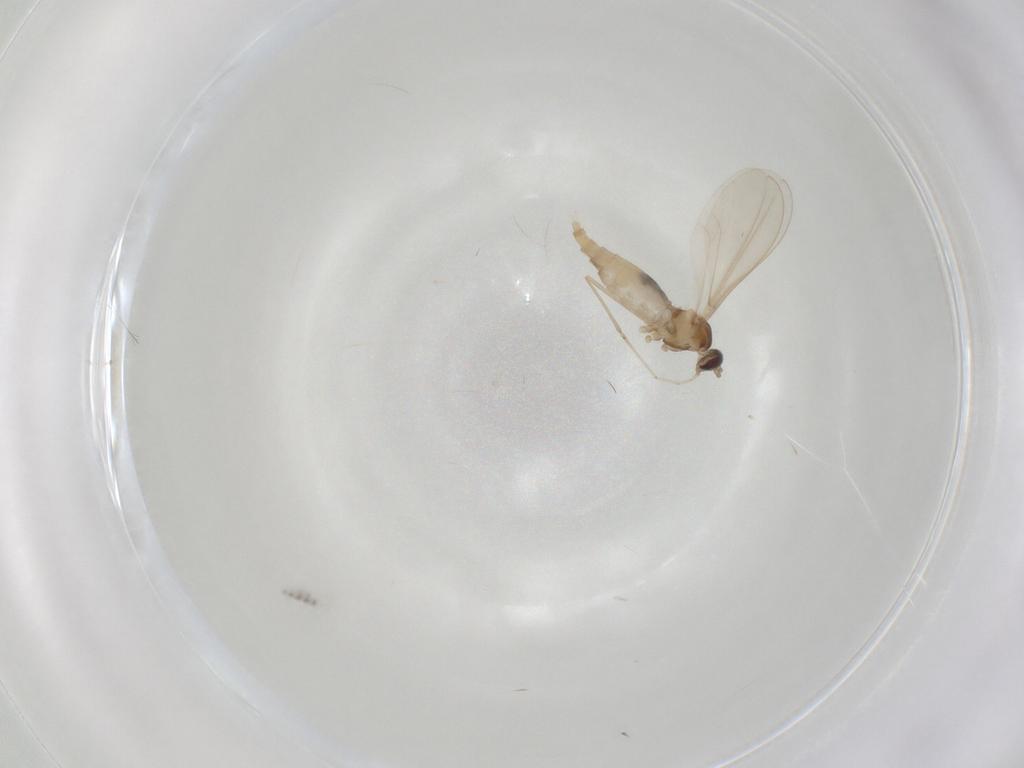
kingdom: Animalia
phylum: Arthropoda
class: Insecta
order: Diptera
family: Cecidomyiidae
